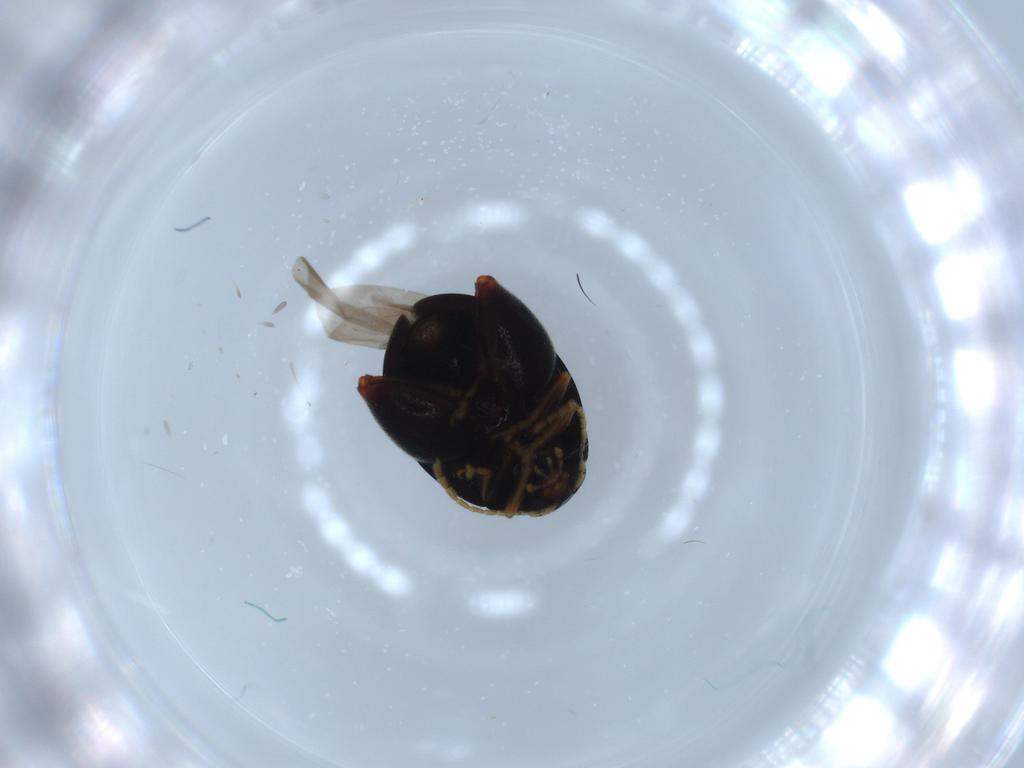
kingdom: Animalia
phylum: Arthropoda
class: Insecta
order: Coleoptera
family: Chrysomelidae
